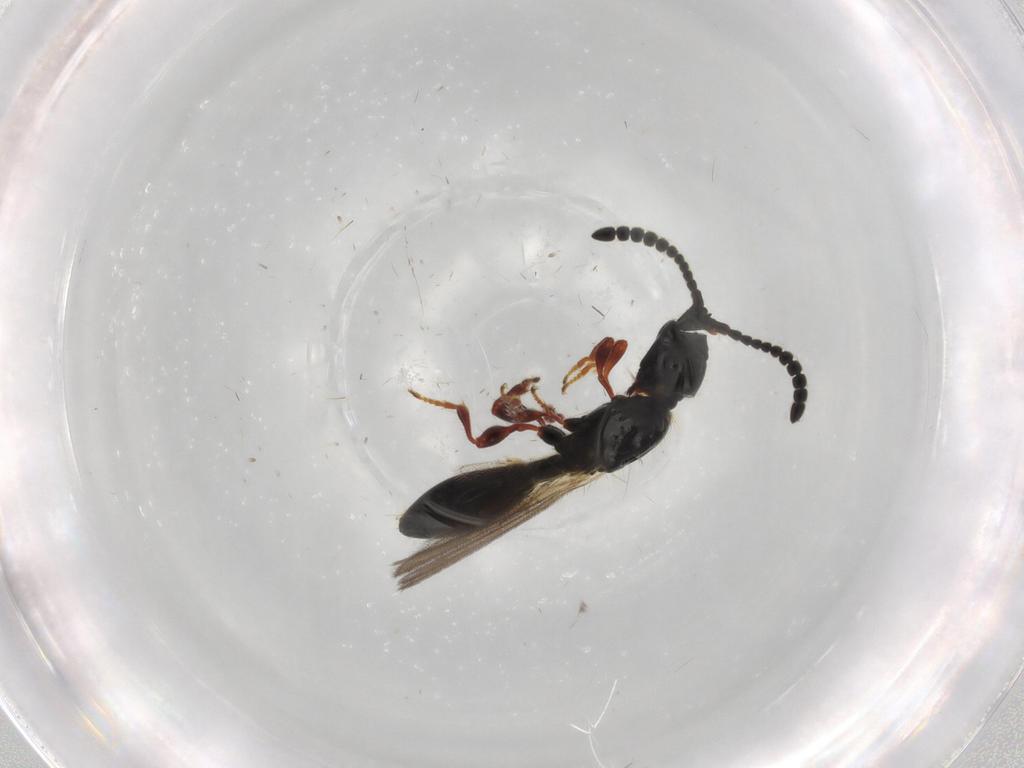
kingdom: Animalia
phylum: Arthropoda
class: Insecta
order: Hymenoptera
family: Diapriidae
